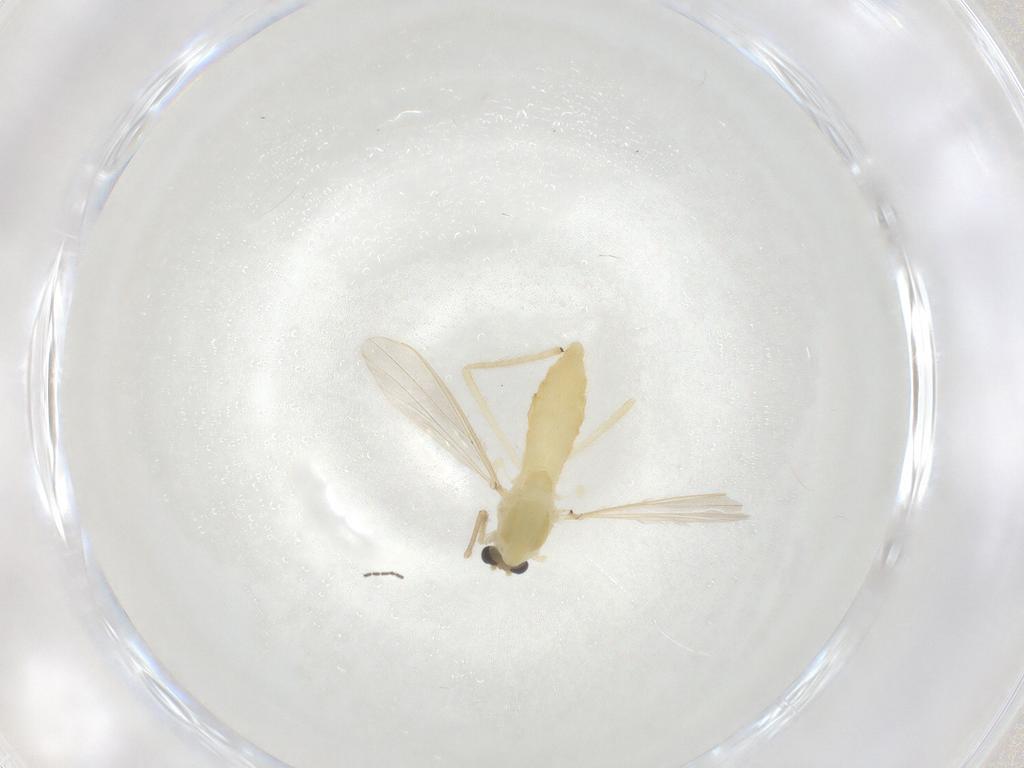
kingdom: Animalia
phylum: Arthropoda
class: Insecta
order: Diptera
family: Chironomidae
